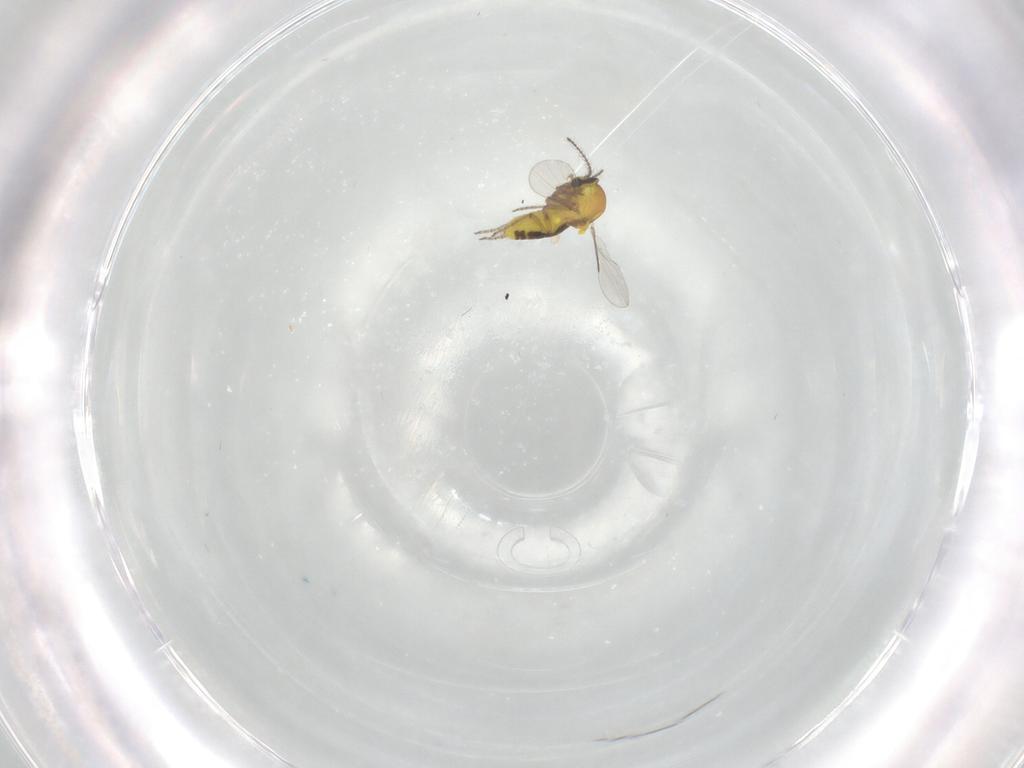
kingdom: Animalia
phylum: Arthropoda
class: Insecta
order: Diptera
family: Ceratopogonidae
